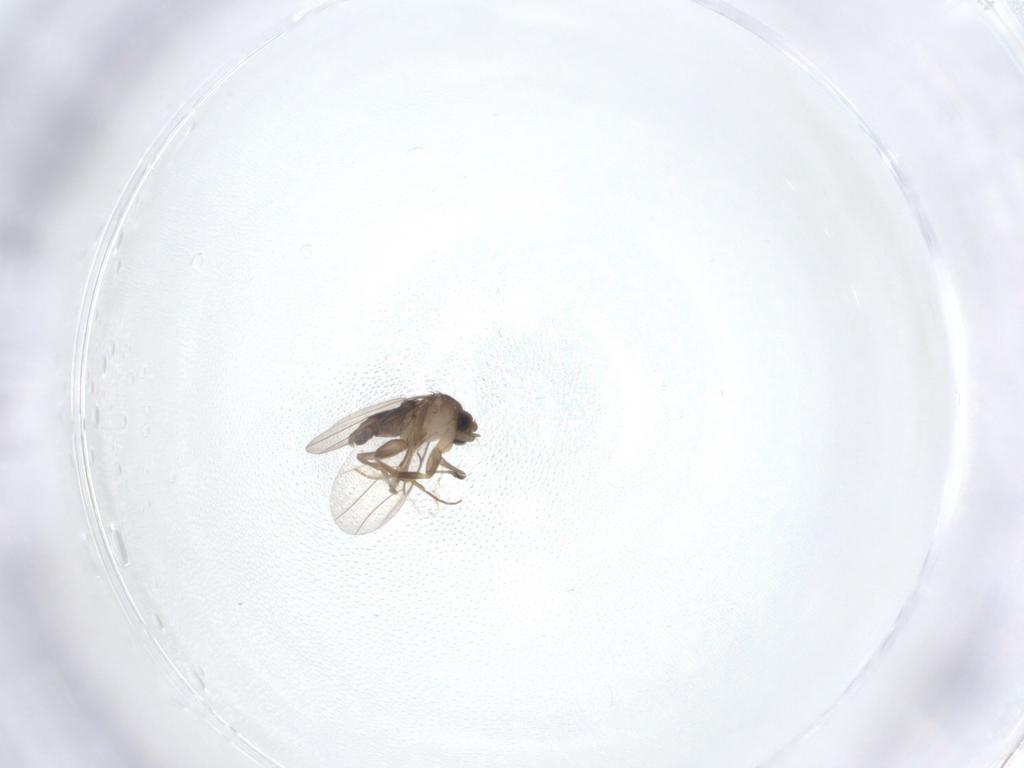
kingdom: Animalia
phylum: Arthropoda
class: Insecta
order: Diptera
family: Phoridae
